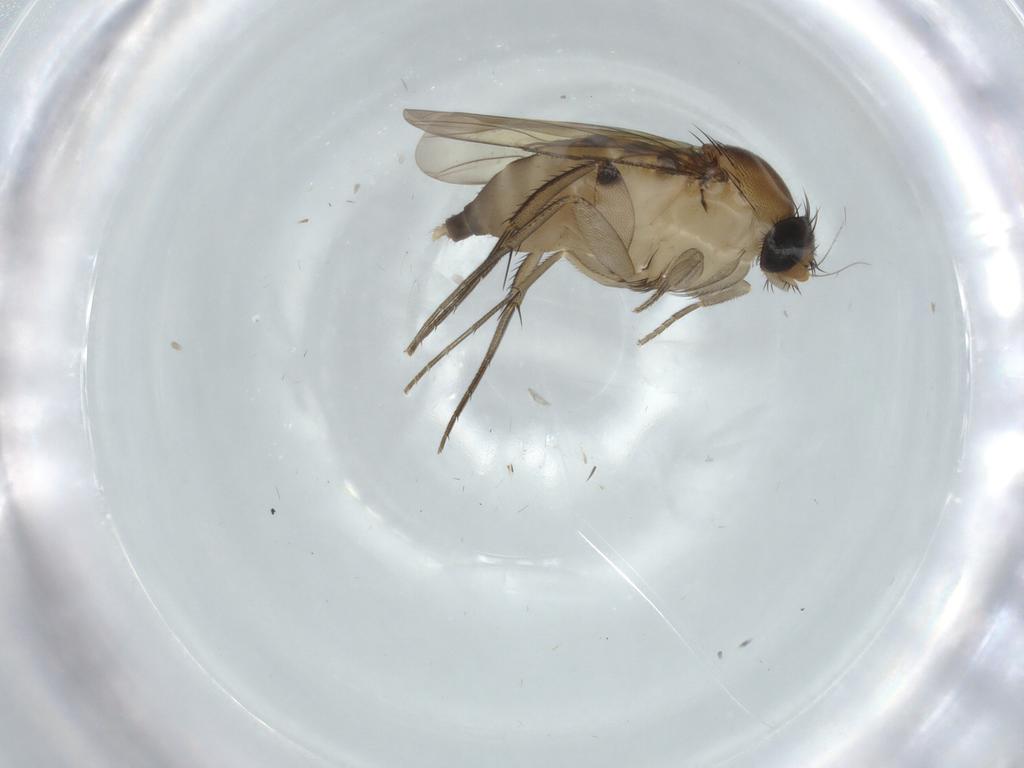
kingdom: Animalia
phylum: Arthropoda
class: Insecta
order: Diptera
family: Phoridae
